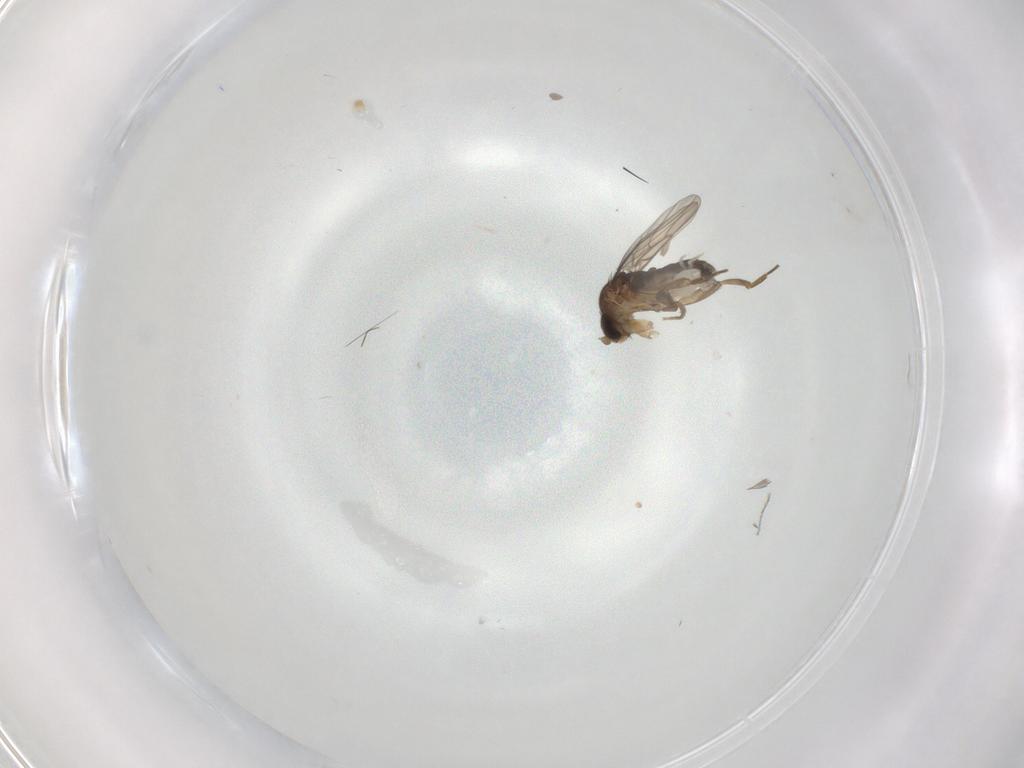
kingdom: Animalia
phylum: Arthropoda
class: Insecta
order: Diptera
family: Phoridae
